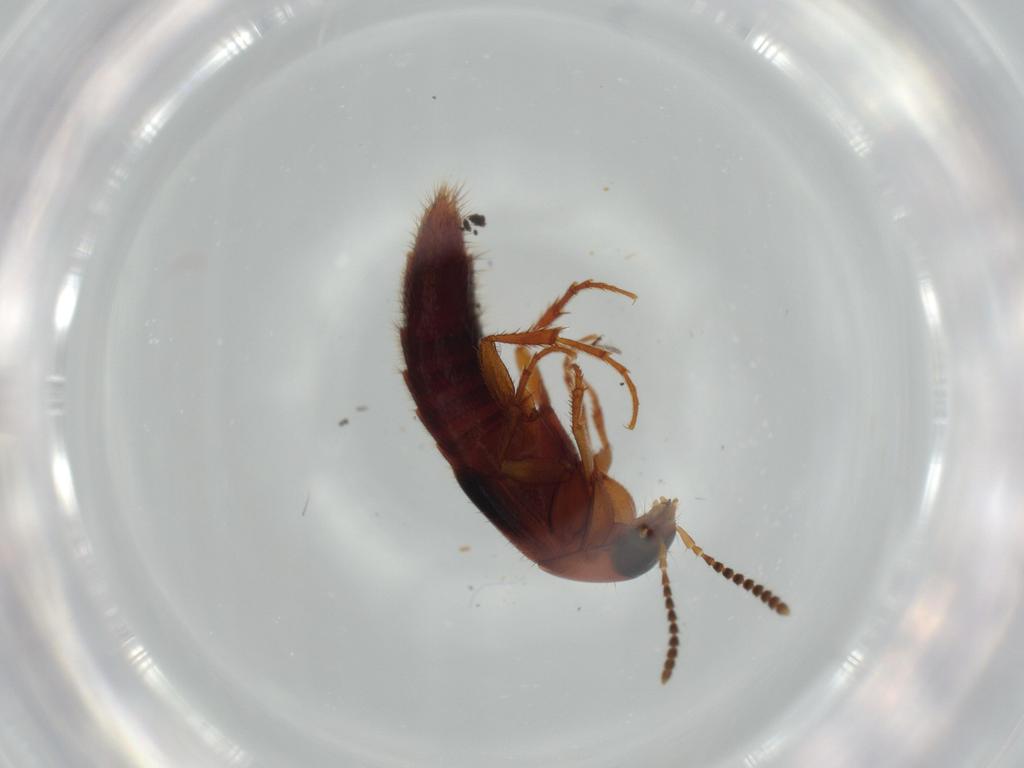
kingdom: Animalia
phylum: Arthropoda
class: Insecta
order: Coleoptera
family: Staphylinidae
